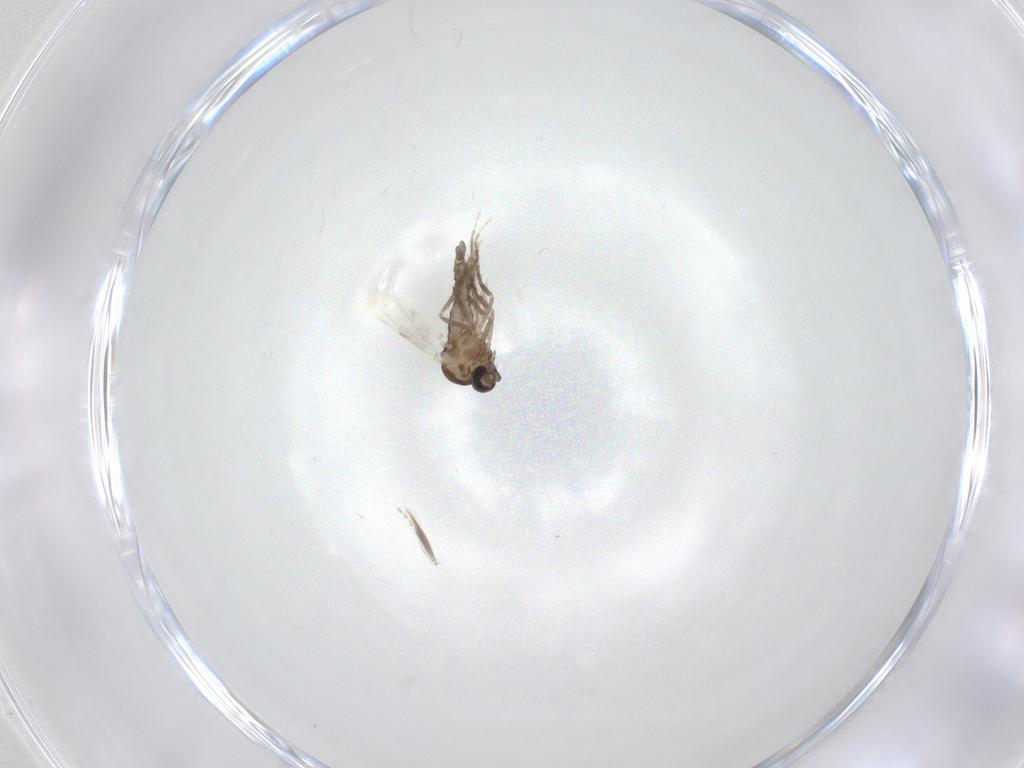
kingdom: Animalia
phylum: Arthropoda
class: Insecta
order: Diptera
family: Ceratopogonidae
